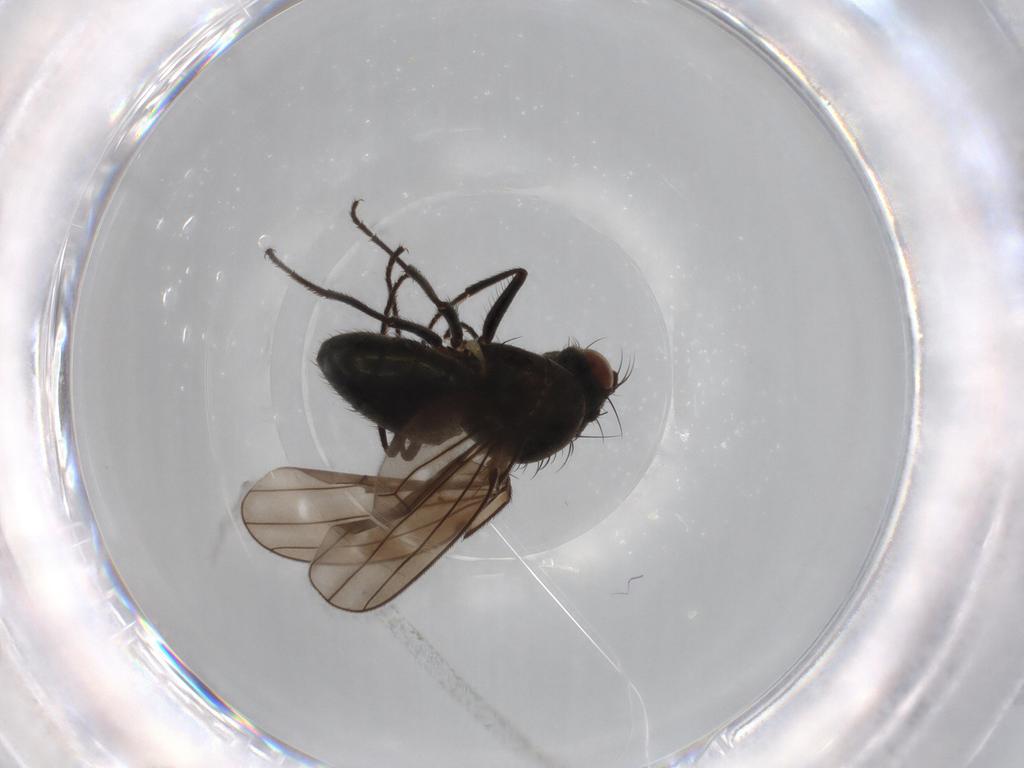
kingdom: Animalia
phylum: Arthropoda
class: Insecta
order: Diptera
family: Ephydridae
